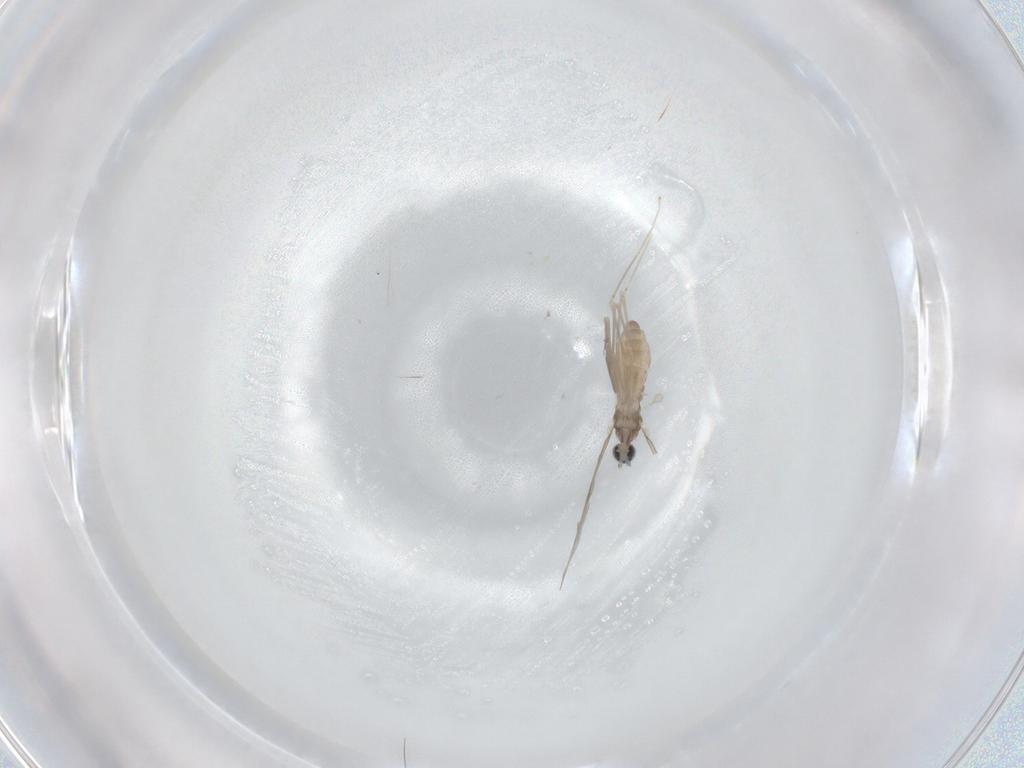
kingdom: Animalia
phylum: Arthropoda
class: Insecta
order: Diptera
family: Cecidomyiidae
